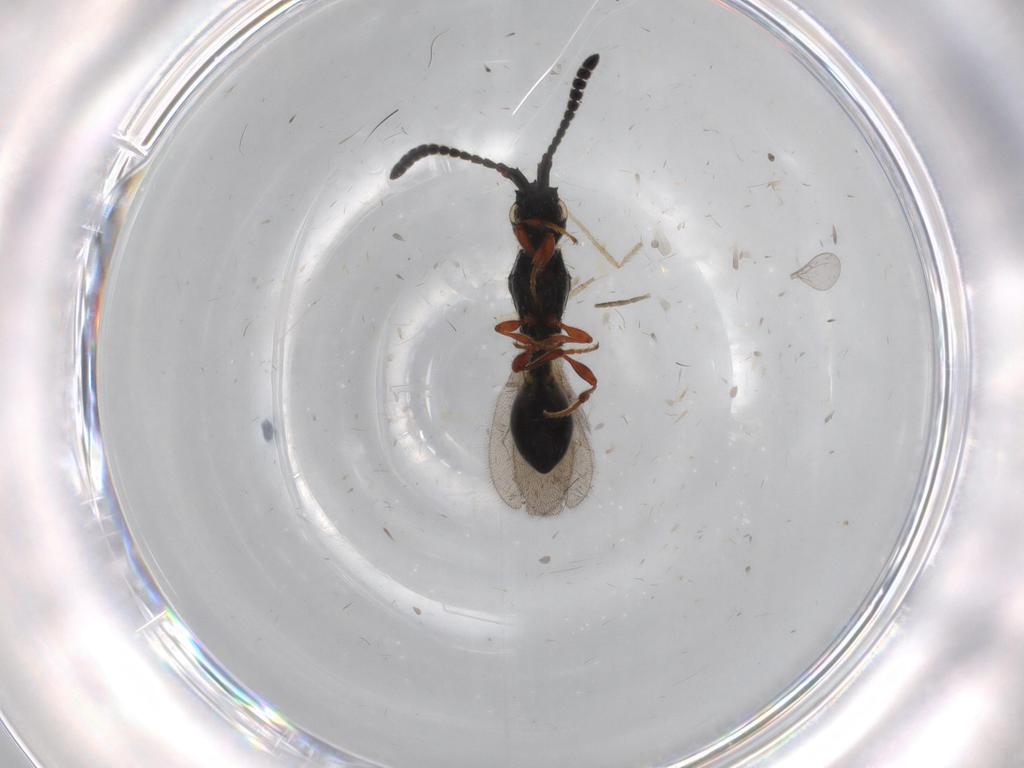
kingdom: Animalia
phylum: Arthropoda
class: Insecta
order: Hymenoptera
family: Diapriidae
